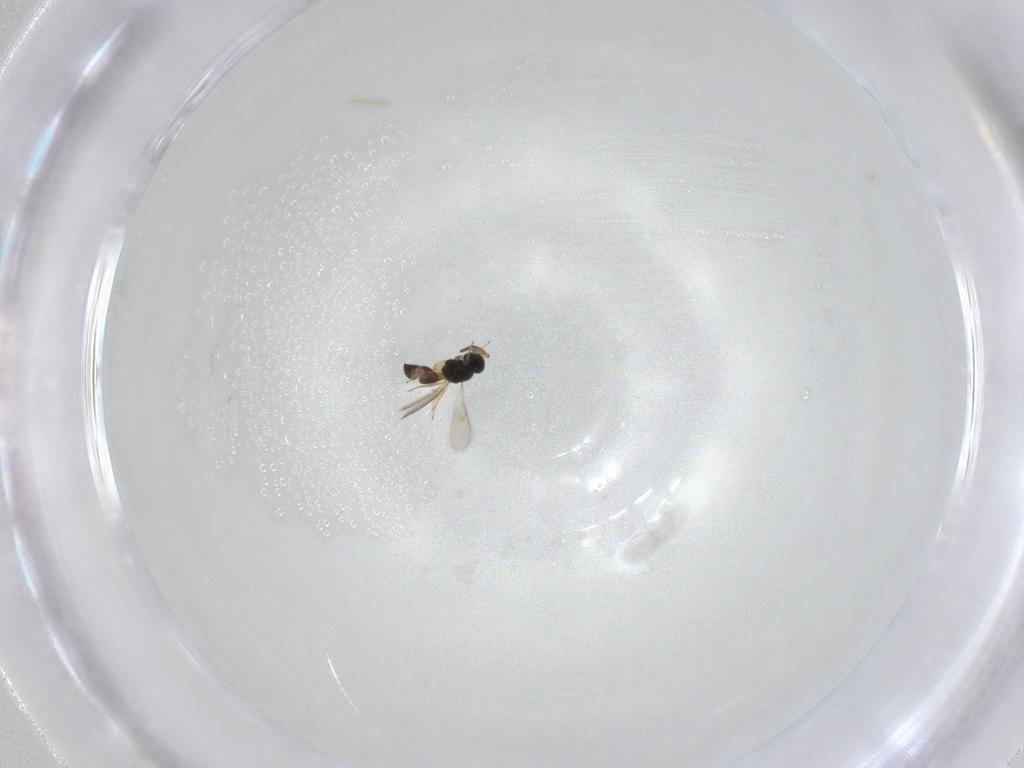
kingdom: Animalia
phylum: Arthropoda
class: Insecta
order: Hymenoptera
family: Scelionidae
